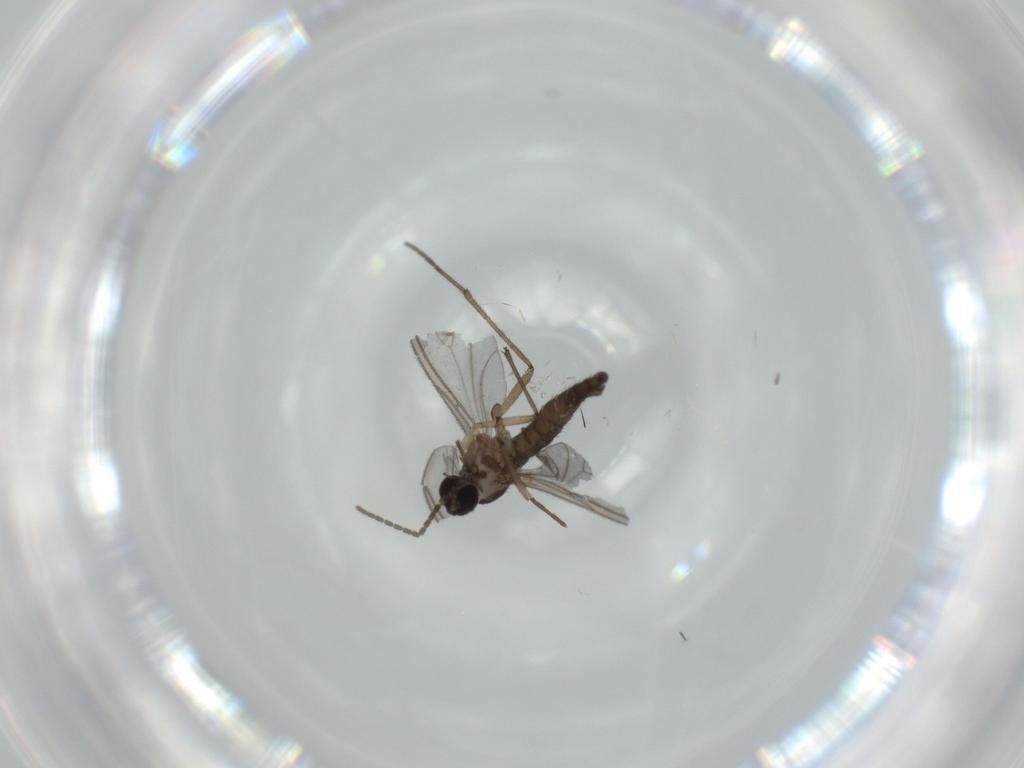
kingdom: Animalia
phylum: Arthropoda
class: Insecta
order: Diptera
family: Sciaridae
